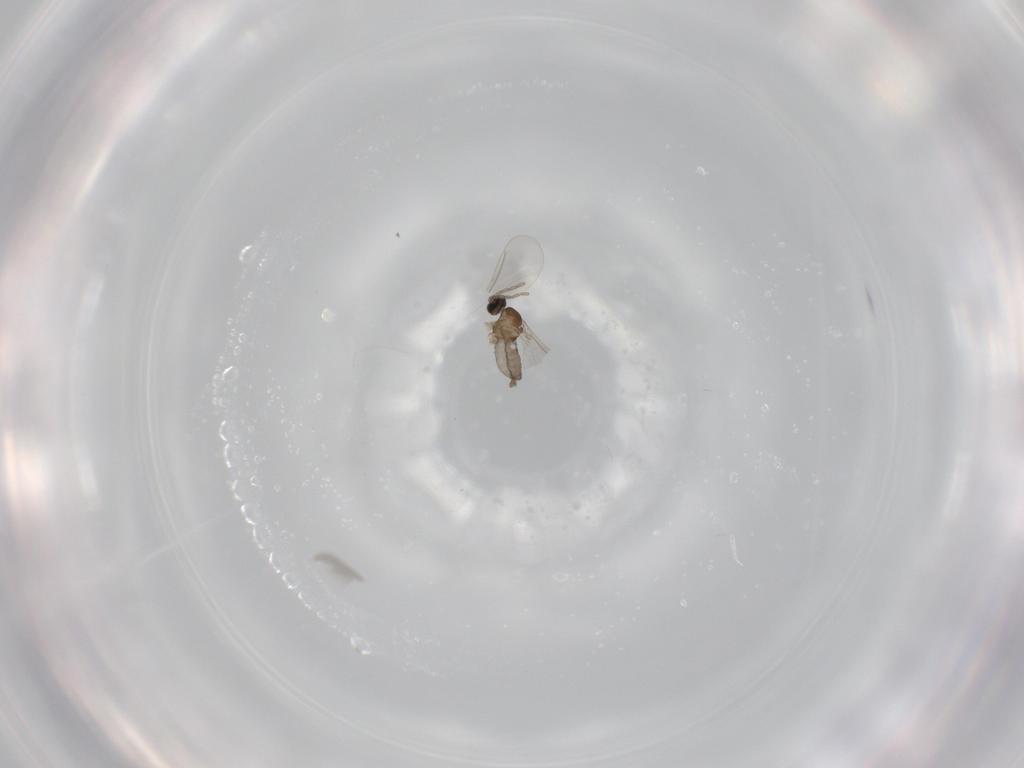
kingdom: Animalia
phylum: Arthropoda
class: Insecta
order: Diptera
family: Cecidomyiidae
